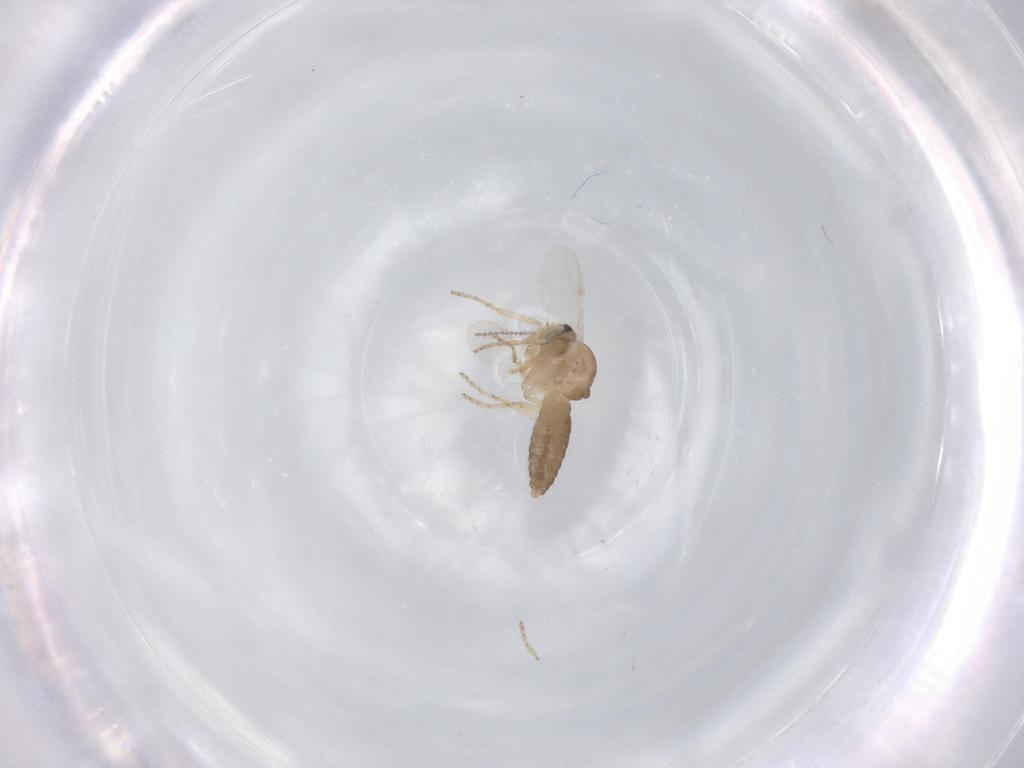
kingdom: Animalia
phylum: Arthropoda
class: Insecta
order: Diptera
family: Ceratopogonidae
